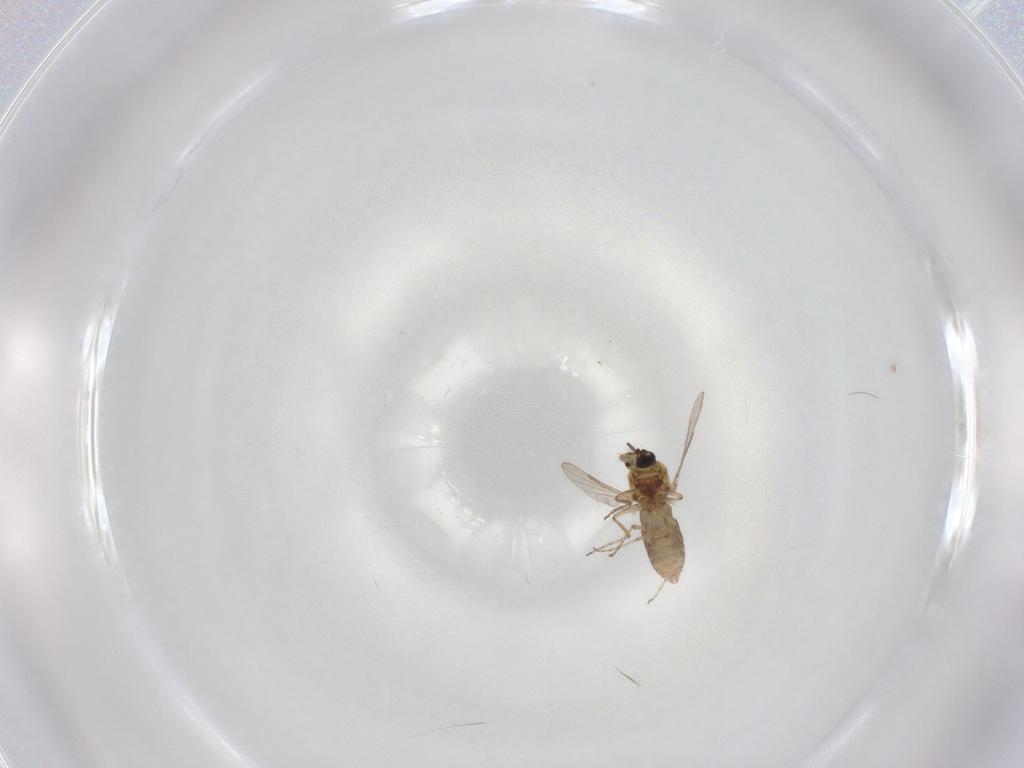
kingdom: Animalia
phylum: Arthropoda
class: Insecta
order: Diptera
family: Ceratopogonidae
